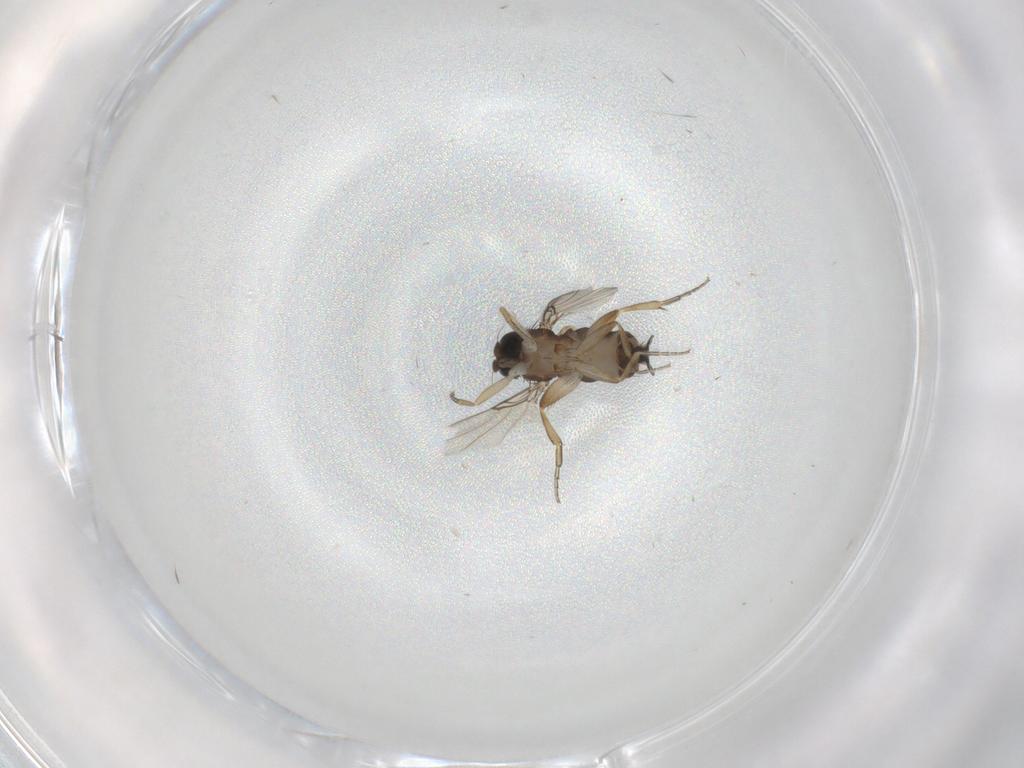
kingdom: Animalia
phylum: Arthropoda
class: Insecta
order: Diptera
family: Phoridae
